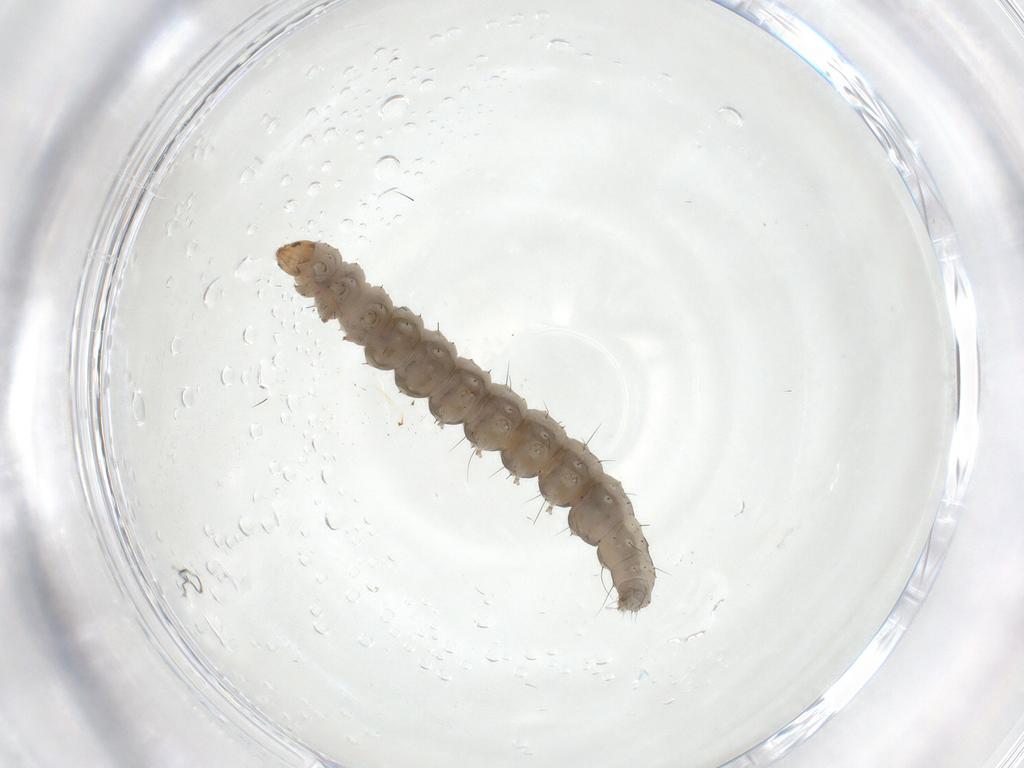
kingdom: Animalia
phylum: Arthropoda
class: Insecta
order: Lepidoptera
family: Bucculatricidae
